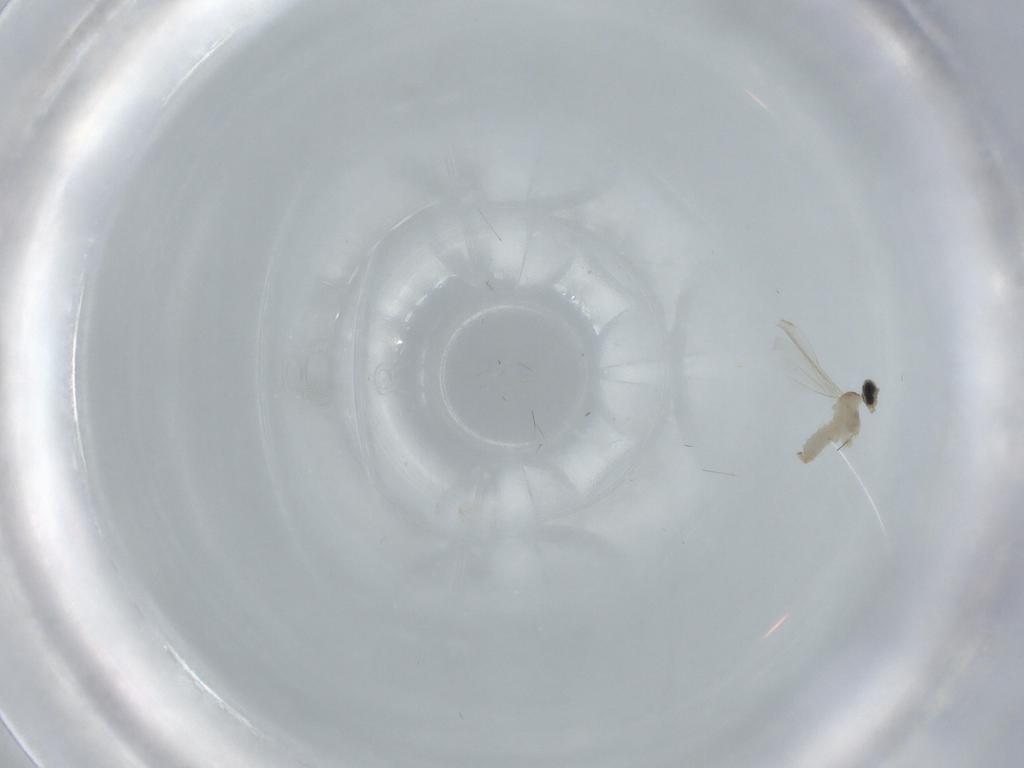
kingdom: Animalia
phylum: Arthropoda
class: Insecta
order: Diptera
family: Cecidomyiidae
